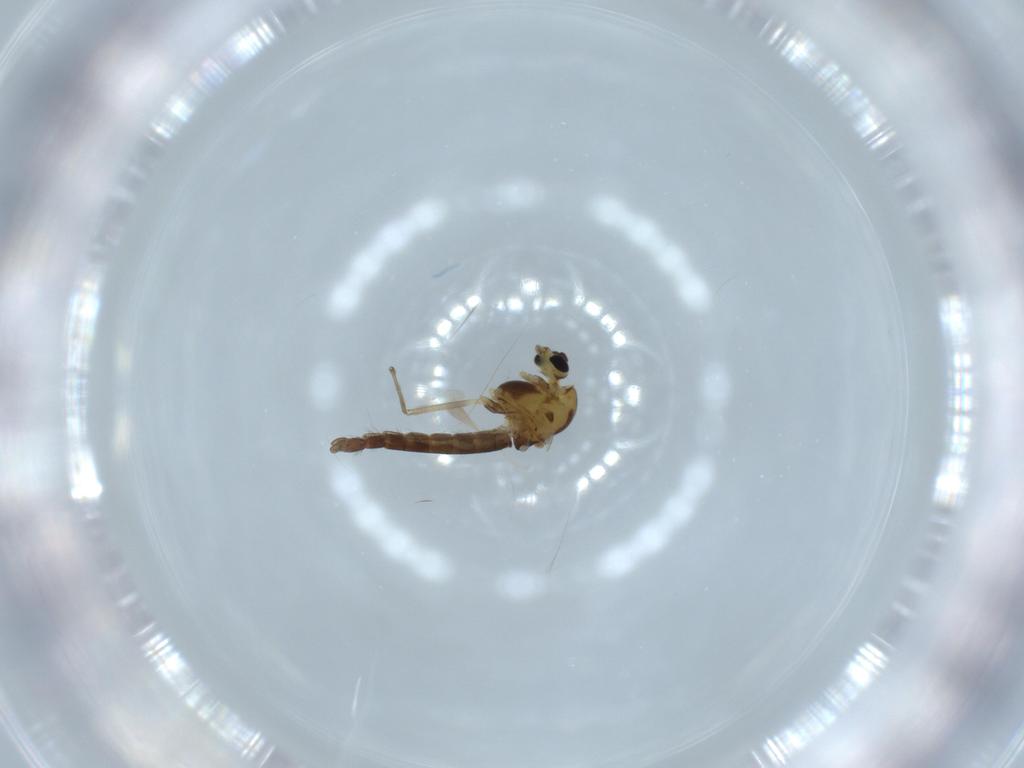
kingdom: Animalia
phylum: Arthropoda
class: Insecta
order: Diptera
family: Chironomidae
